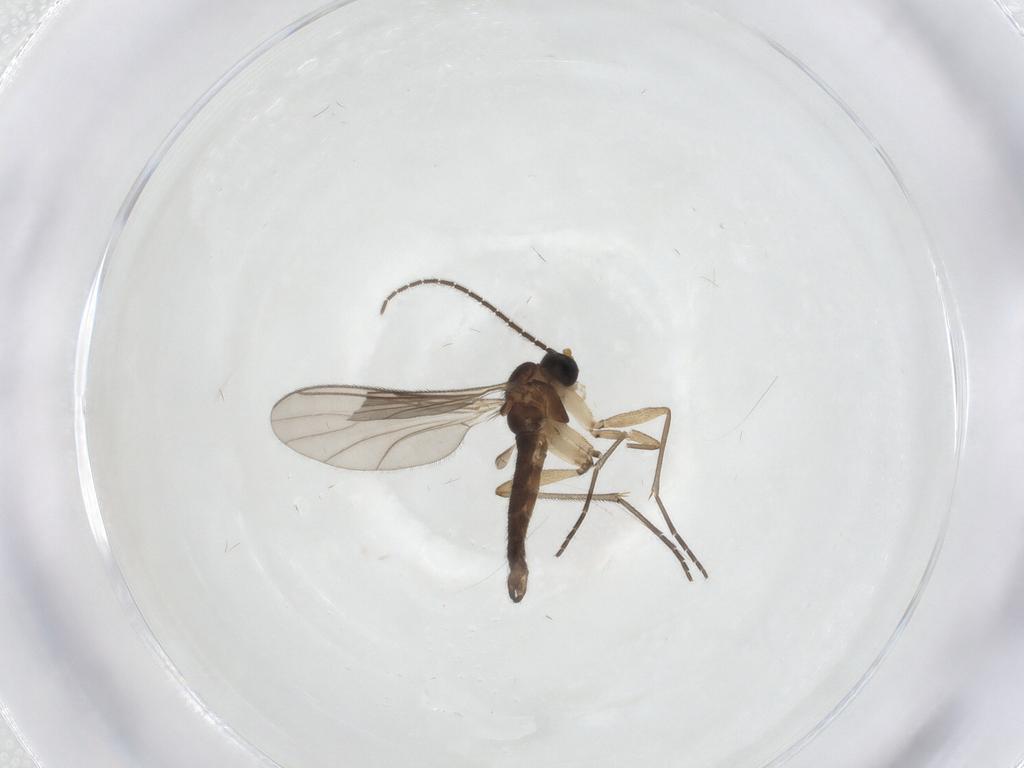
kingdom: Animalia
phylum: Arthropoda
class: Insecta
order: Diptera
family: Sciaridae
